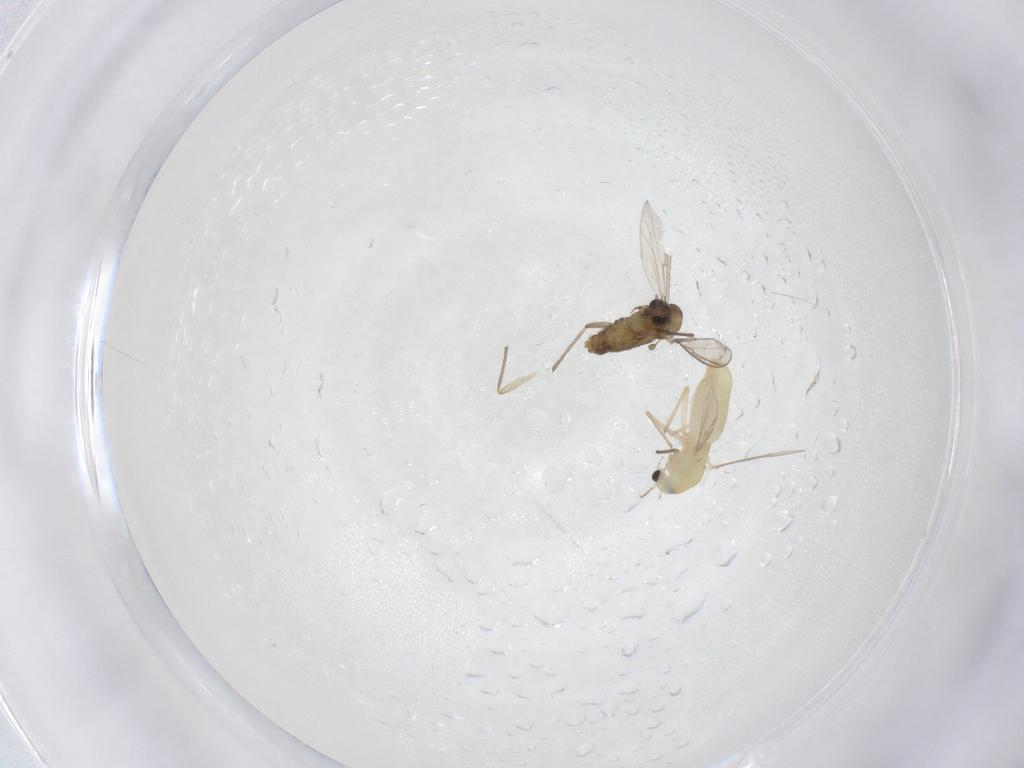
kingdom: Animalia
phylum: Arthropoda
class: Insecta
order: Diptera
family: Chironomidae
